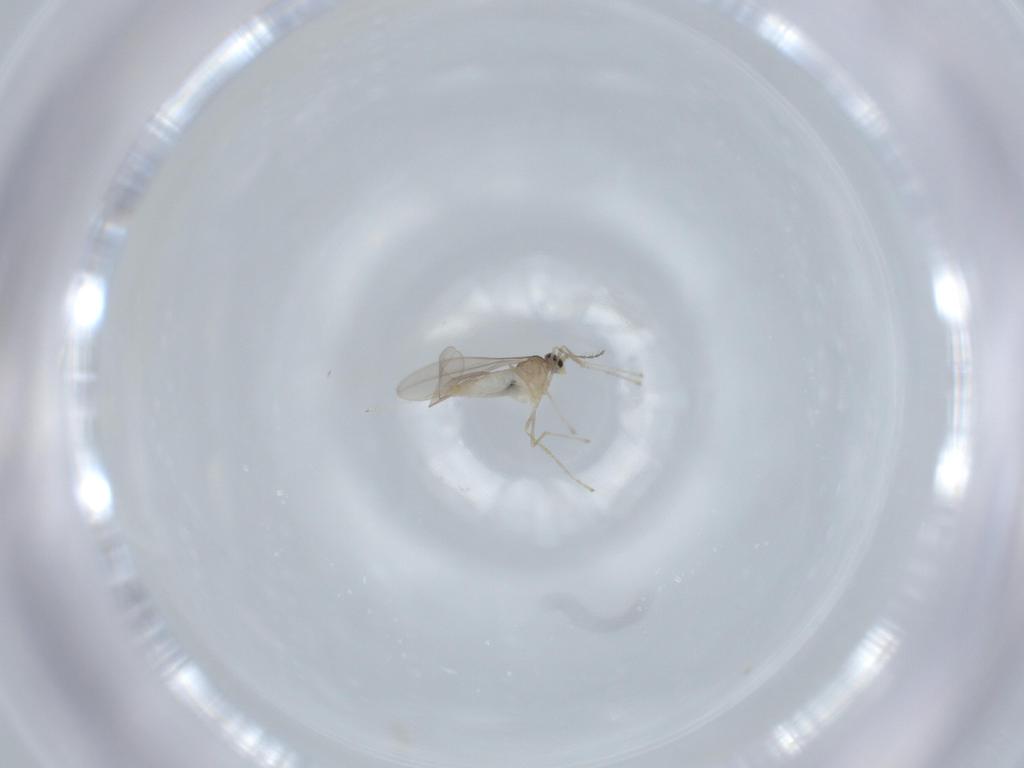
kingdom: Animalia
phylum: Arthropoda
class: Insecta
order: Diptera
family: Cecidomyiidae
